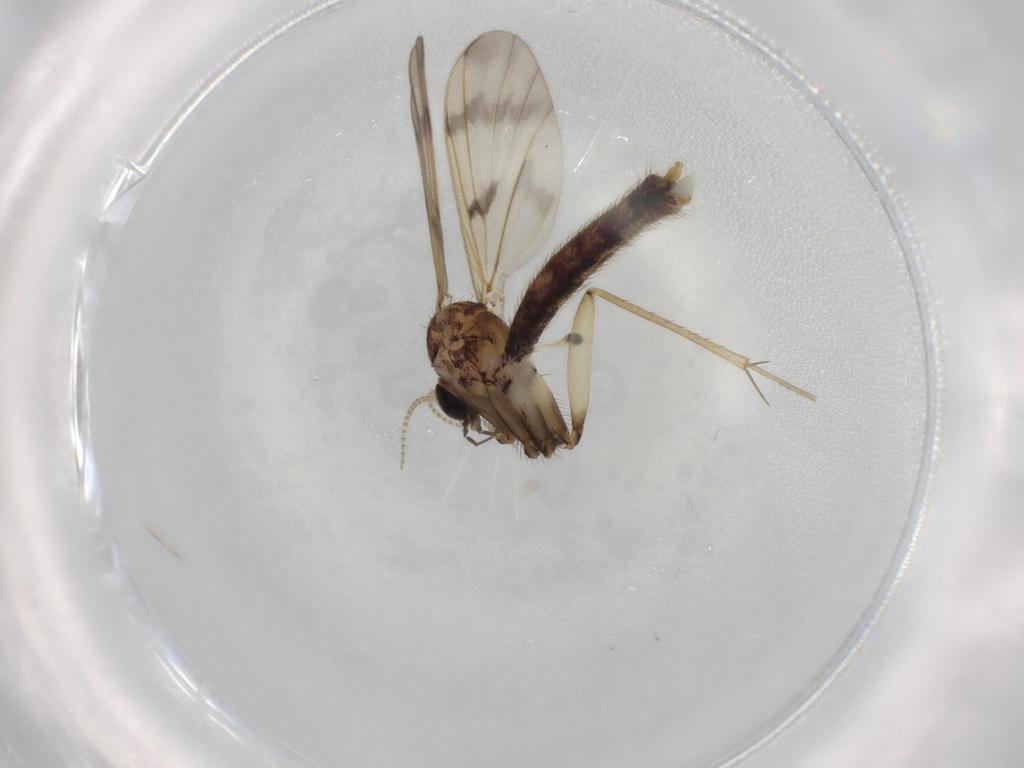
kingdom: Animalia
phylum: Arthropoda
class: Insecta
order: Diptera
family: Mycetophilidae
